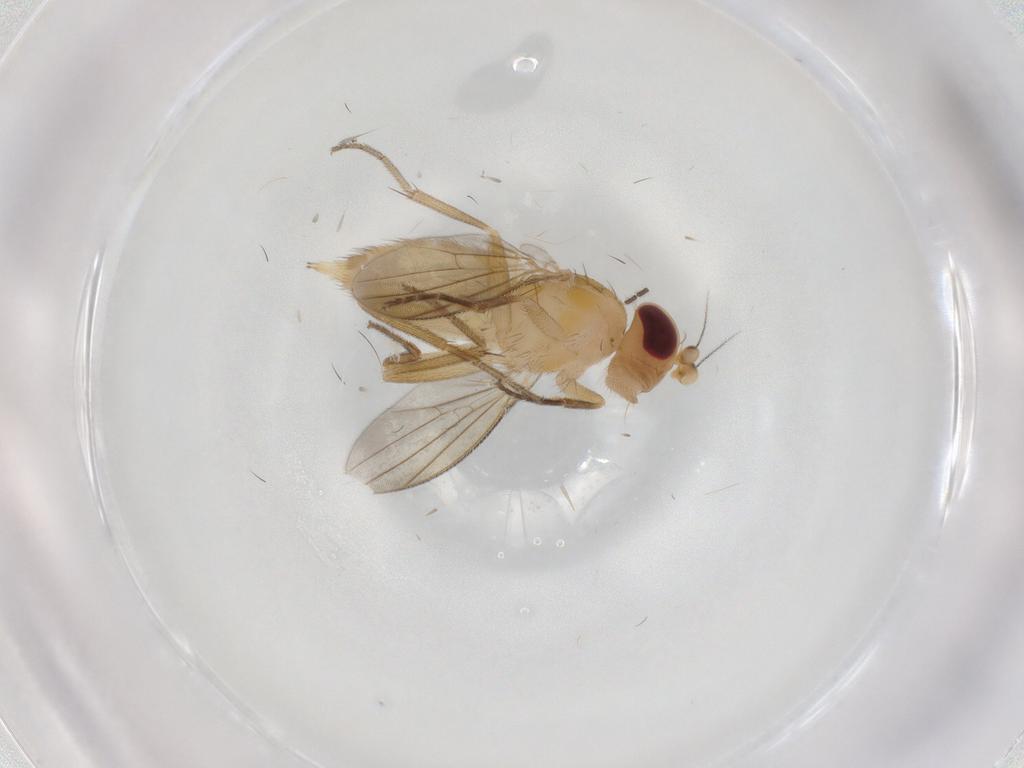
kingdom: Animalia
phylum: Arthropoda
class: Insecta
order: Diptera
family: Clusiidae
